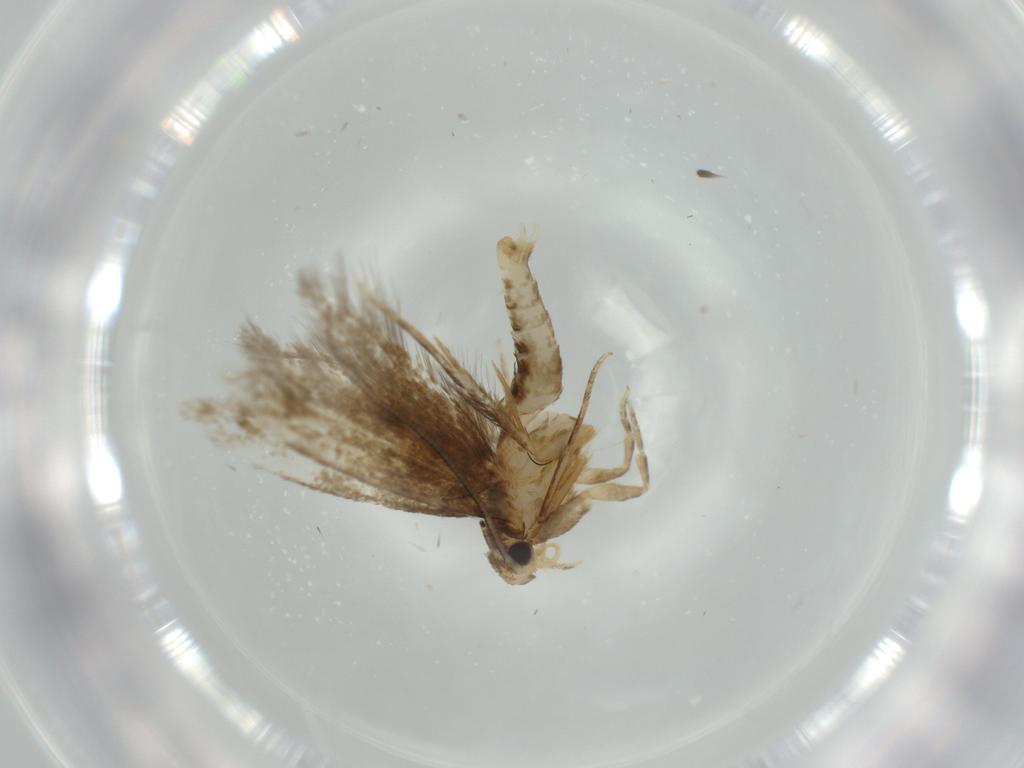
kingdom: Animalia
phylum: Arthropoda
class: Insecta
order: Lepidoptera
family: Tineidae
